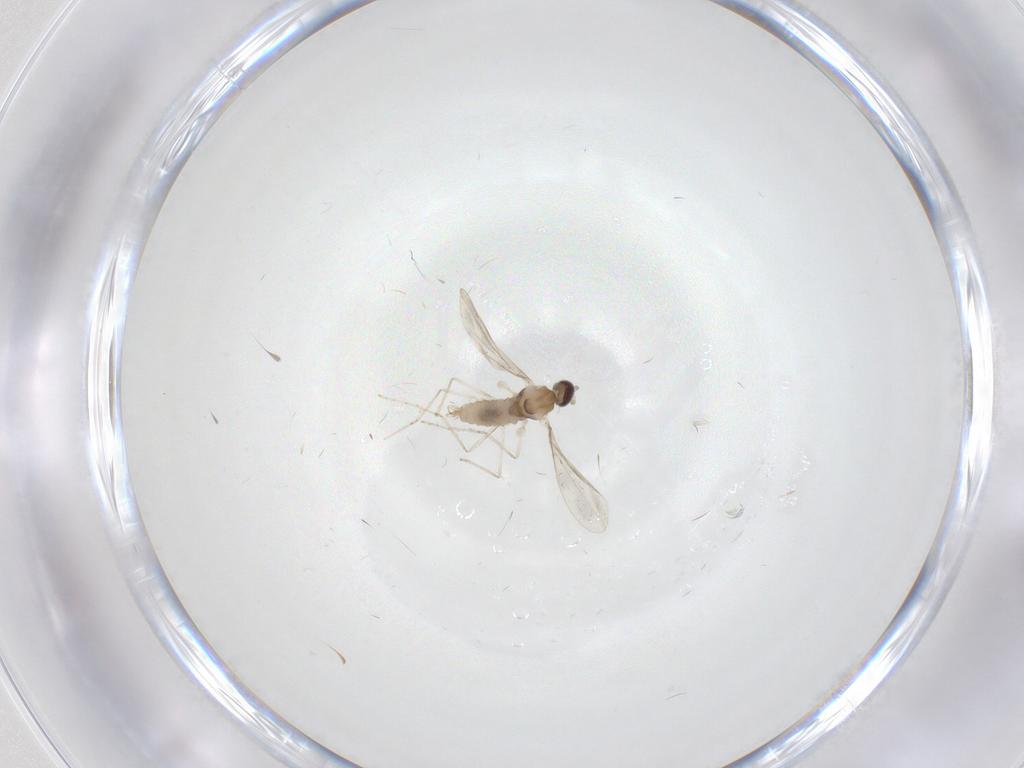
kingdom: Animalia
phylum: Arthropoda
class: Insecta
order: Diptera
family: Cecidomyiidae
